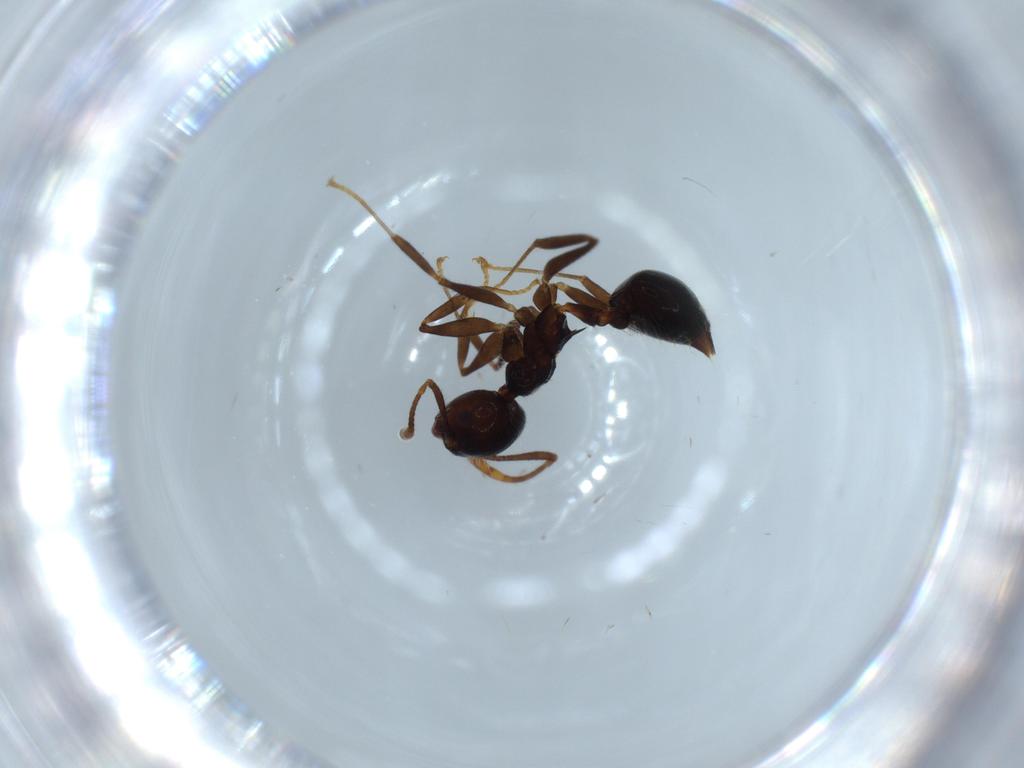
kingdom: Animalia
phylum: Arthropoda
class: Insecta
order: Hymenoptera
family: Formicidae
